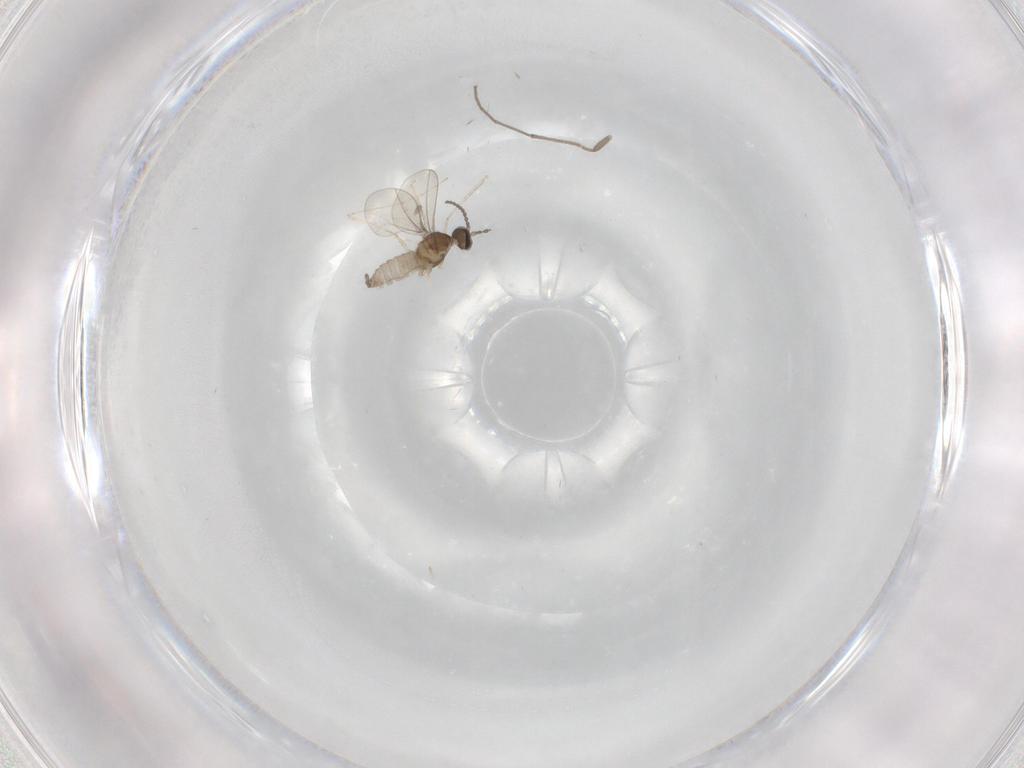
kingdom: Animalia
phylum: Arthropoda
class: Insecta
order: Diptera
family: Chironomidae
